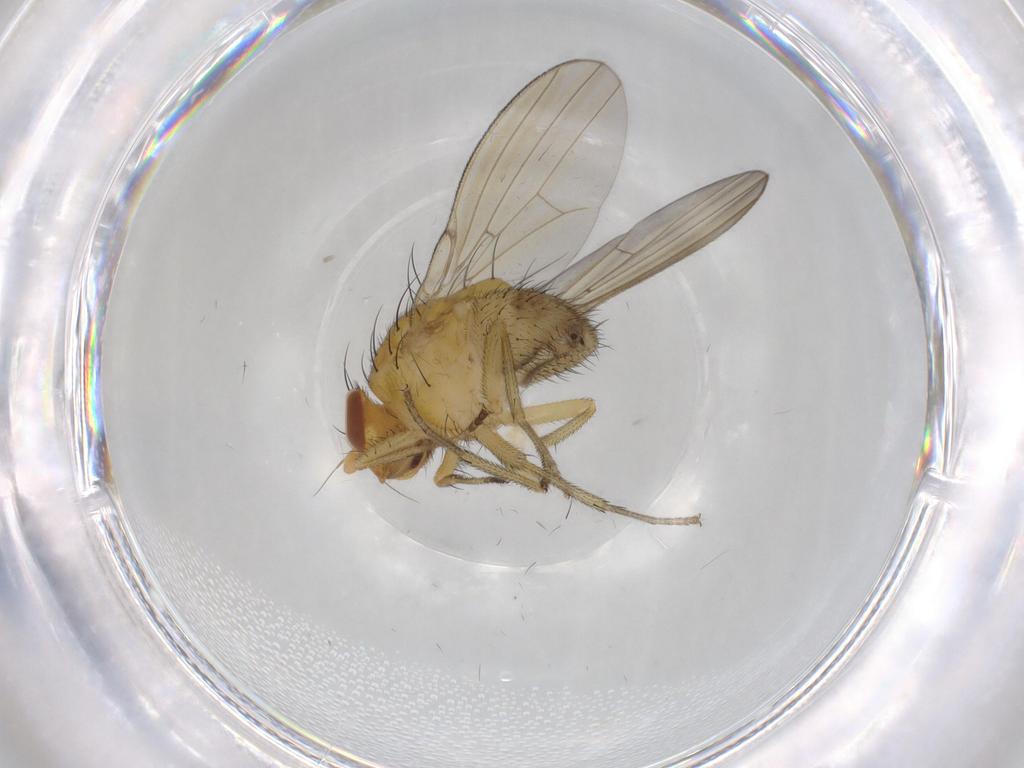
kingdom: Animalia
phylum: Arthropoda
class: Insecta
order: Diptera
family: Lauxaniidae
